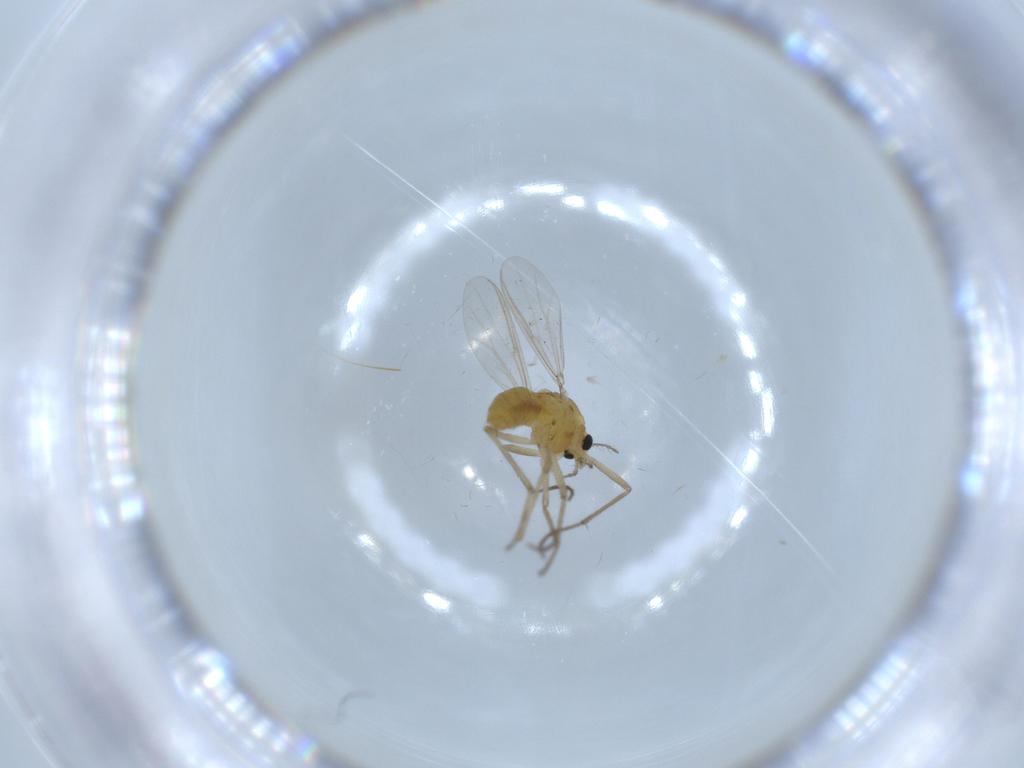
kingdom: Animalia
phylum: Arthropoda
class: Insecta
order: Diptera
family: Chironomidae
